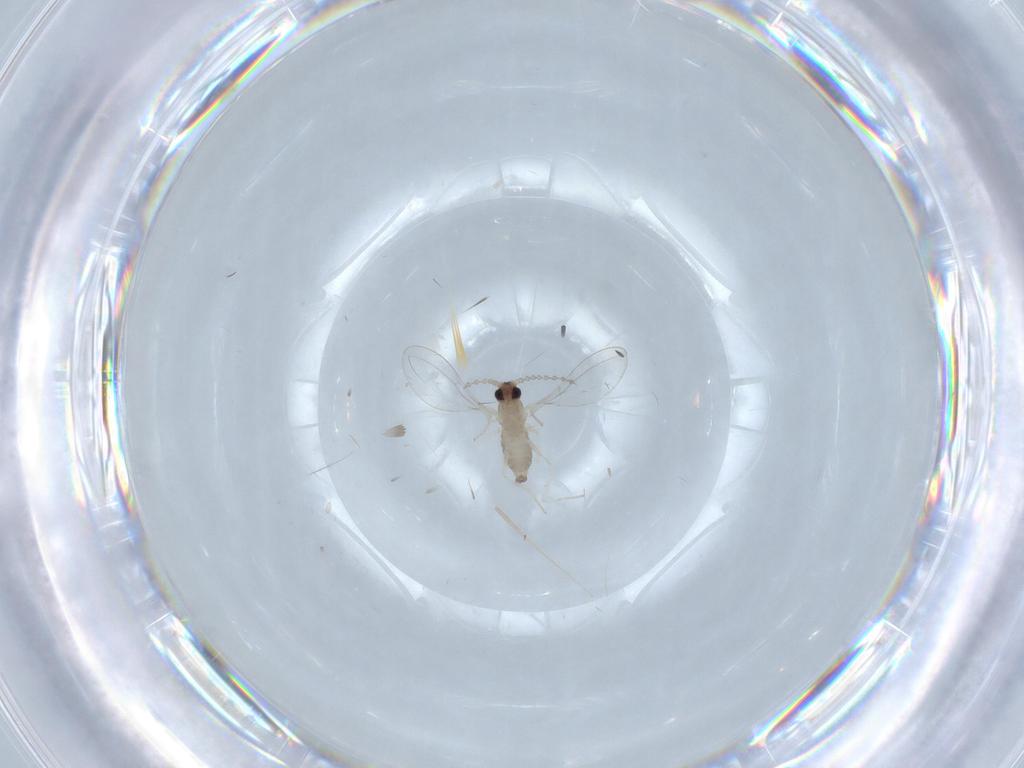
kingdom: Animalia
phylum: Arthropoda
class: Insecta
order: Diptera
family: Cecidomyiidae
